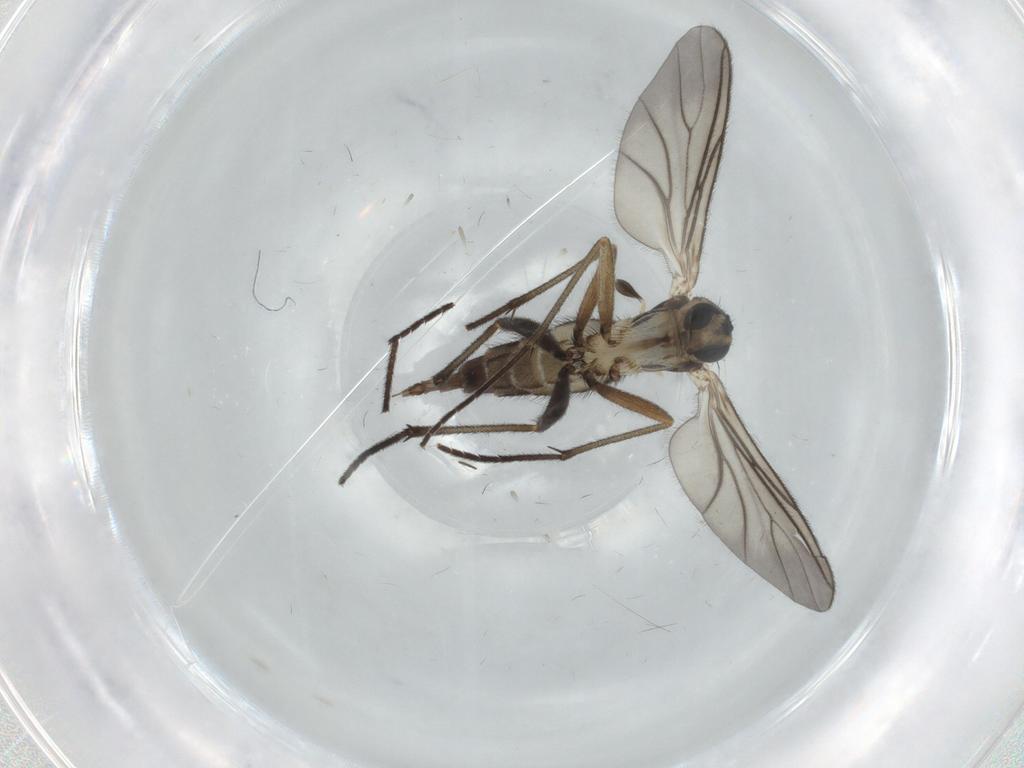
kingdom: Animalia
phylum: Arthropoda
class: Insecta
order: Diptera
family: Sciaridae
